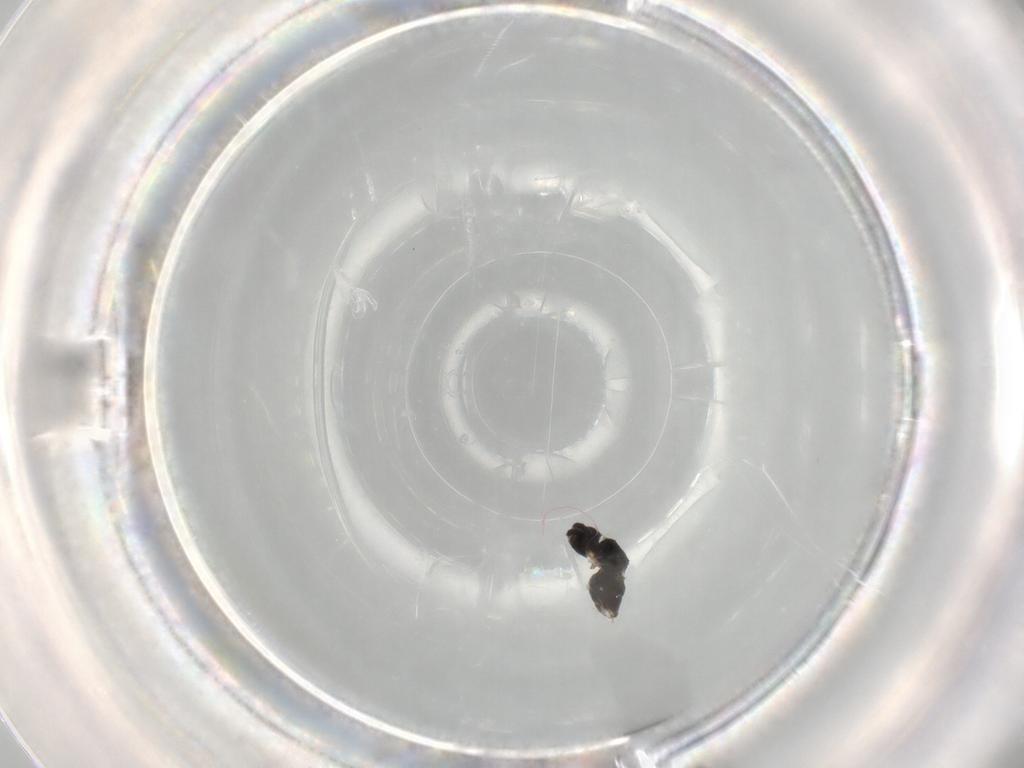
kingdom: Animalia
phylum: Arthropoda
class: Insecta
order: Hymenoptera
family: Mymaridae
